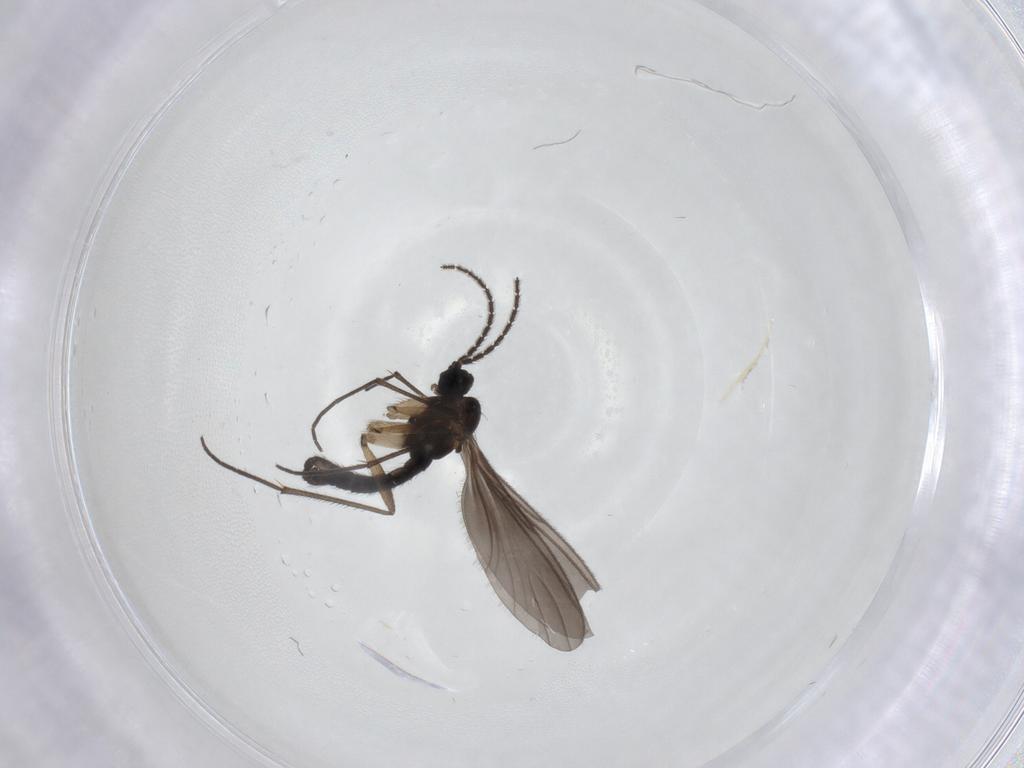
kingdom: Animalia
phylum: Arthropoda
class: Insecta
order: Diptera
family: Sciaridae
